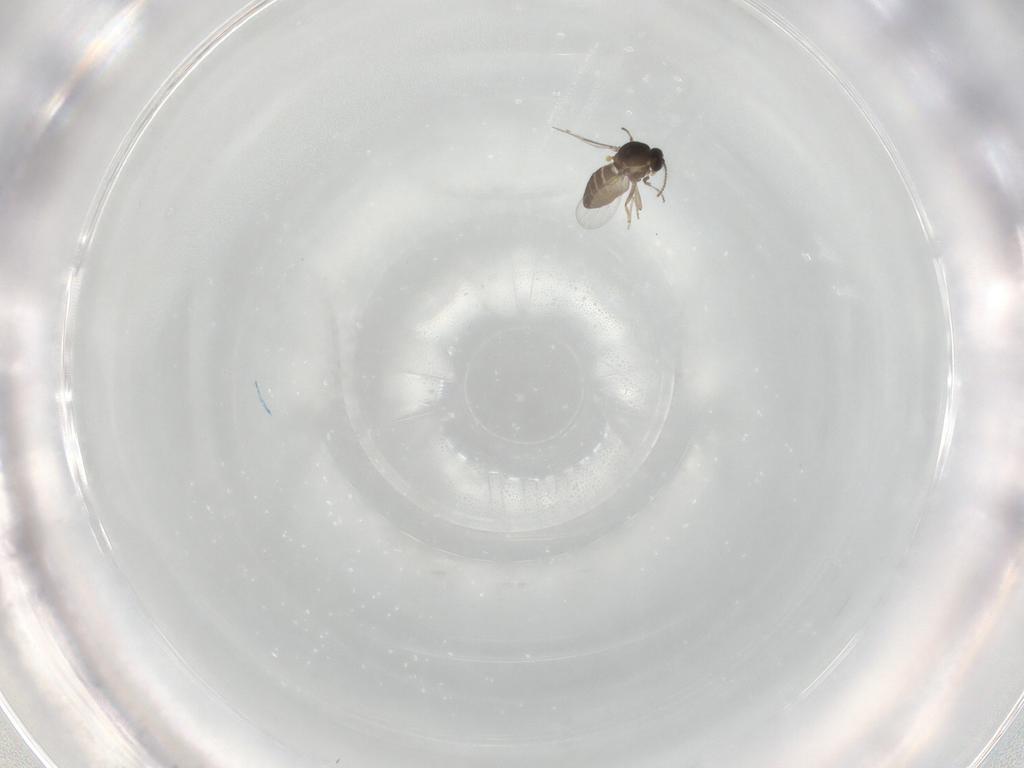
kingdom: Animalia
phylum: Arthropoda
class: Insecta
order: Diptera
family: Ceratopogonidae
